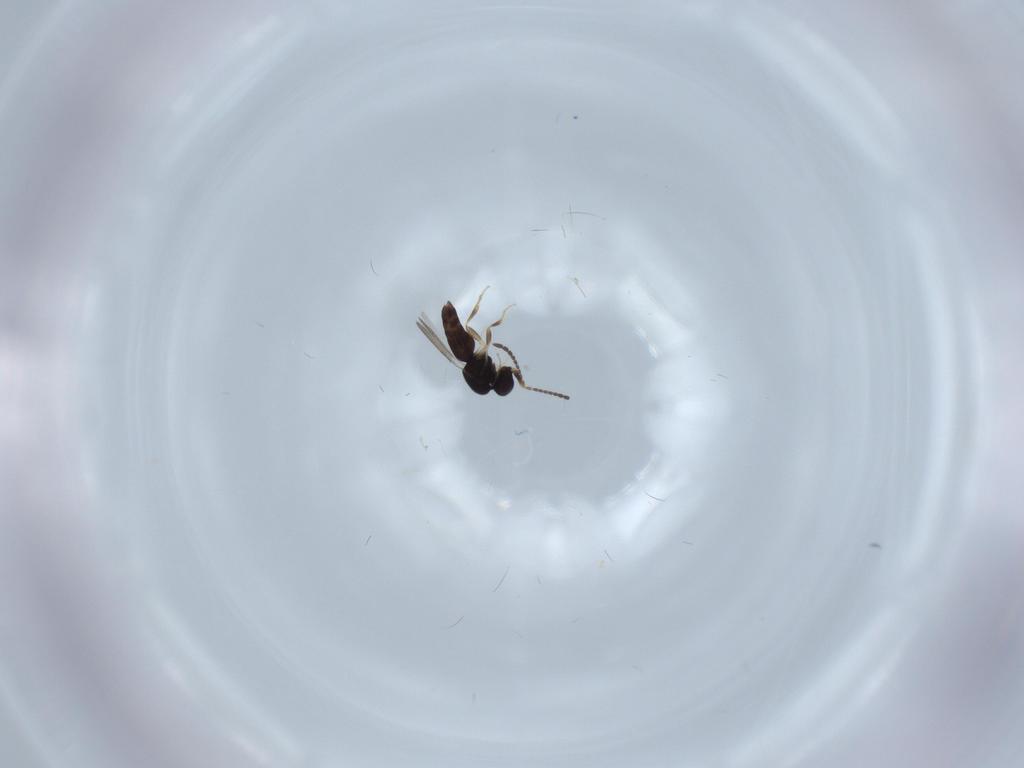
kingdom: Animalia
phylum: Arthropoda
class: Insecta
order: Hymenoptera
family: Ceraphronidae
